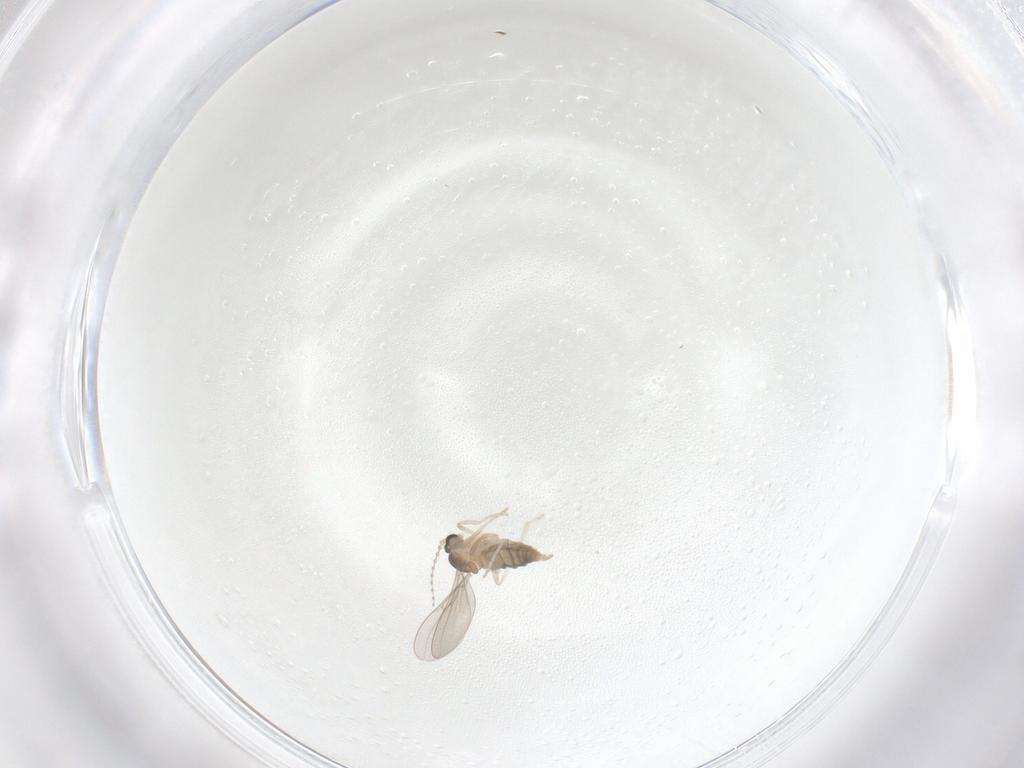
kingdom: Animalia
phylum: Arthropoda
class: Insecta
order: Diptera
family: Cecidomyiidae
